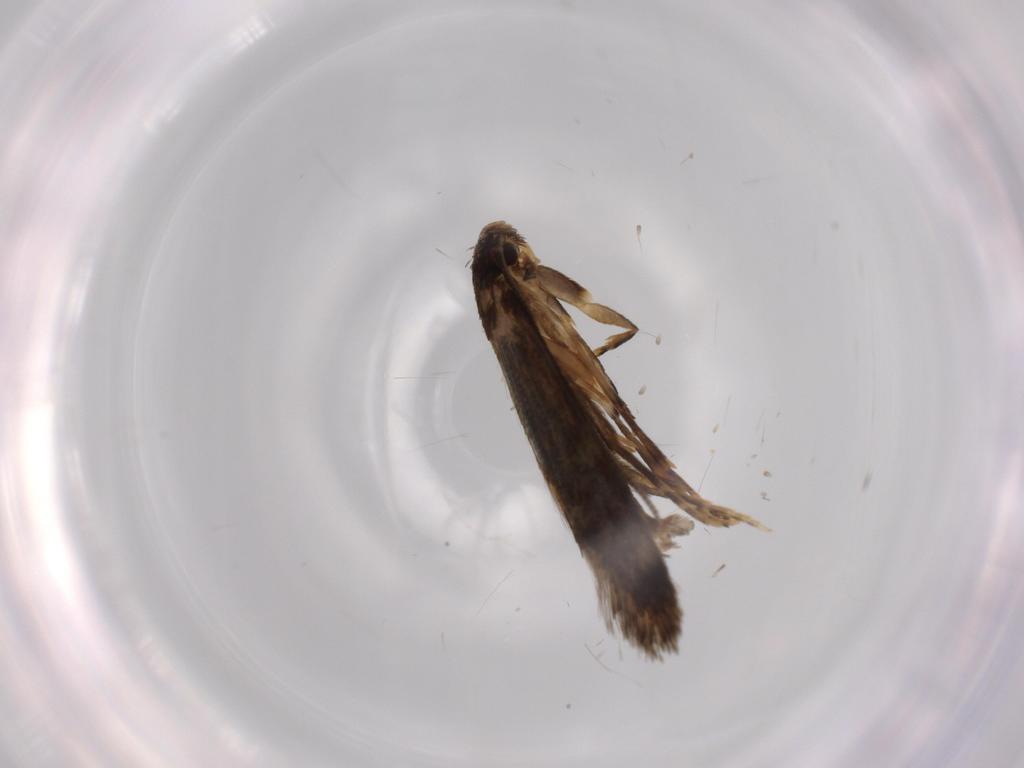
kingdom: Animalia
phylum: Arthropoda
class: Insecta
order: Lepidoptera
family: Tineidae
